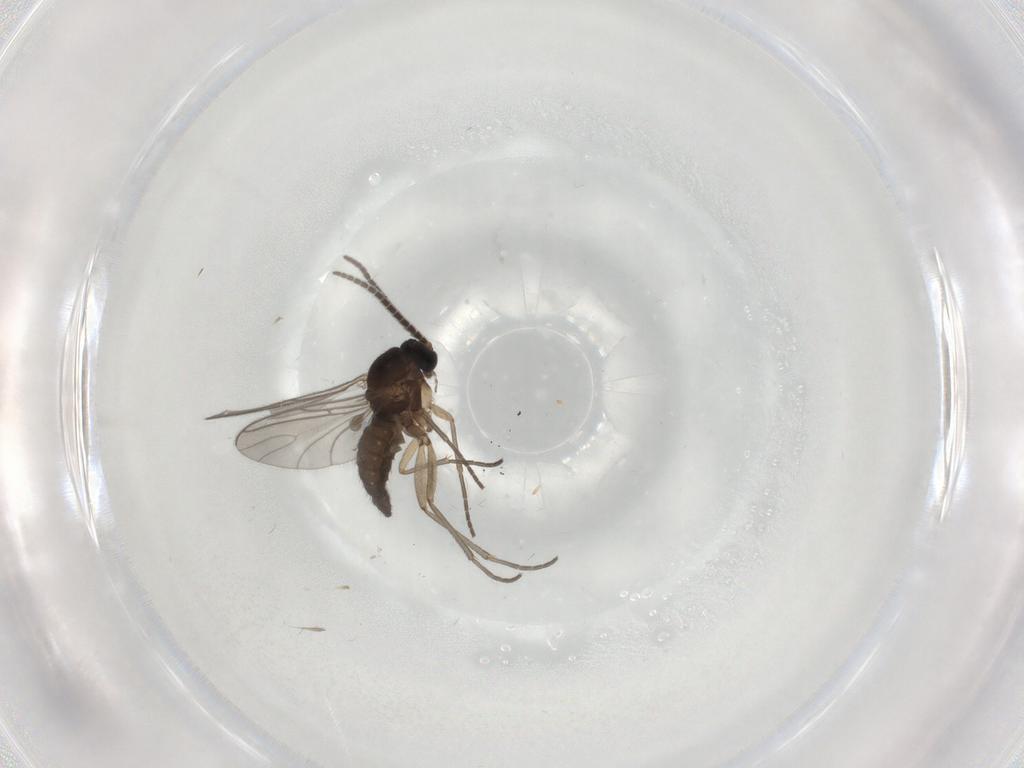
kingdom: Animalia
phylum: Arthropoda
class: Insecta
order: Diptera
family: Sciaridae
